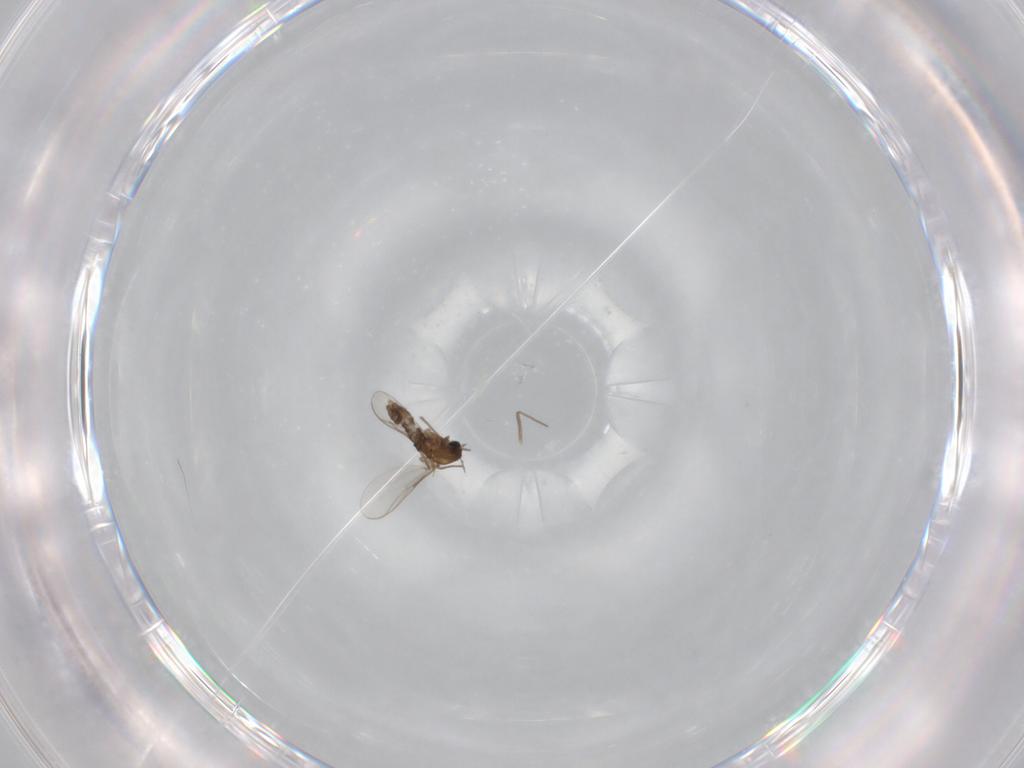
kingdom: Animalia
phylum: Arthropoda
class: Insecta
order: Diptera
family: Chironomidae
